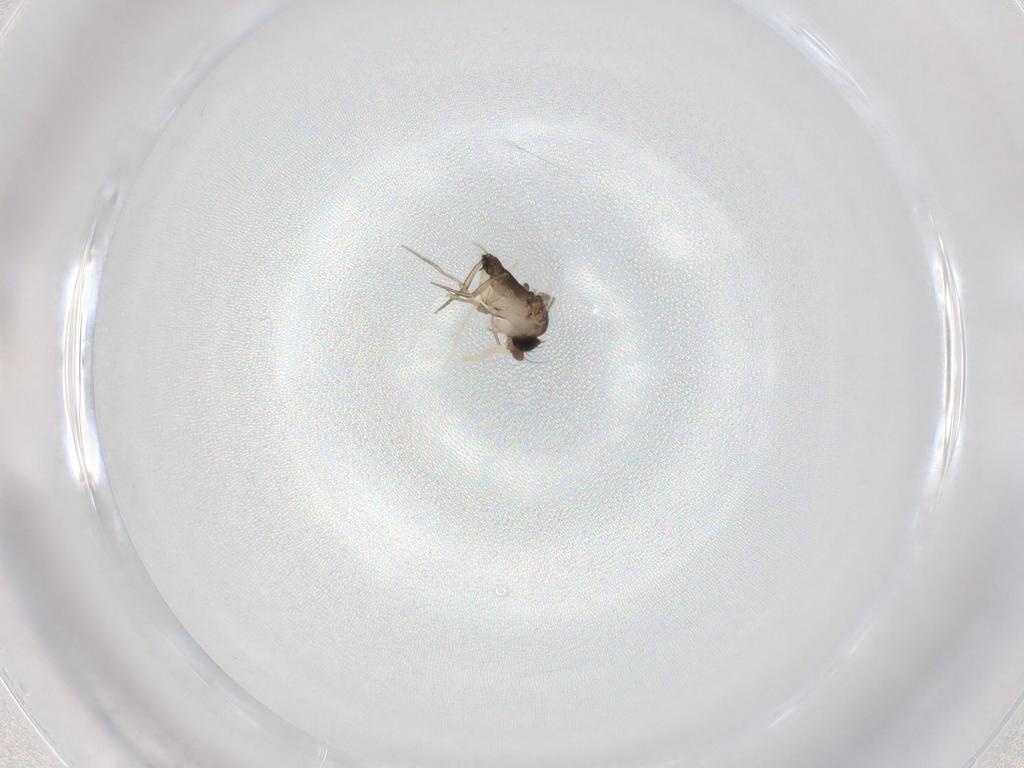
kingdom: Animalia
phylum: Arthropoda
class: Insecta
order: Diptera
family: Phoridae
